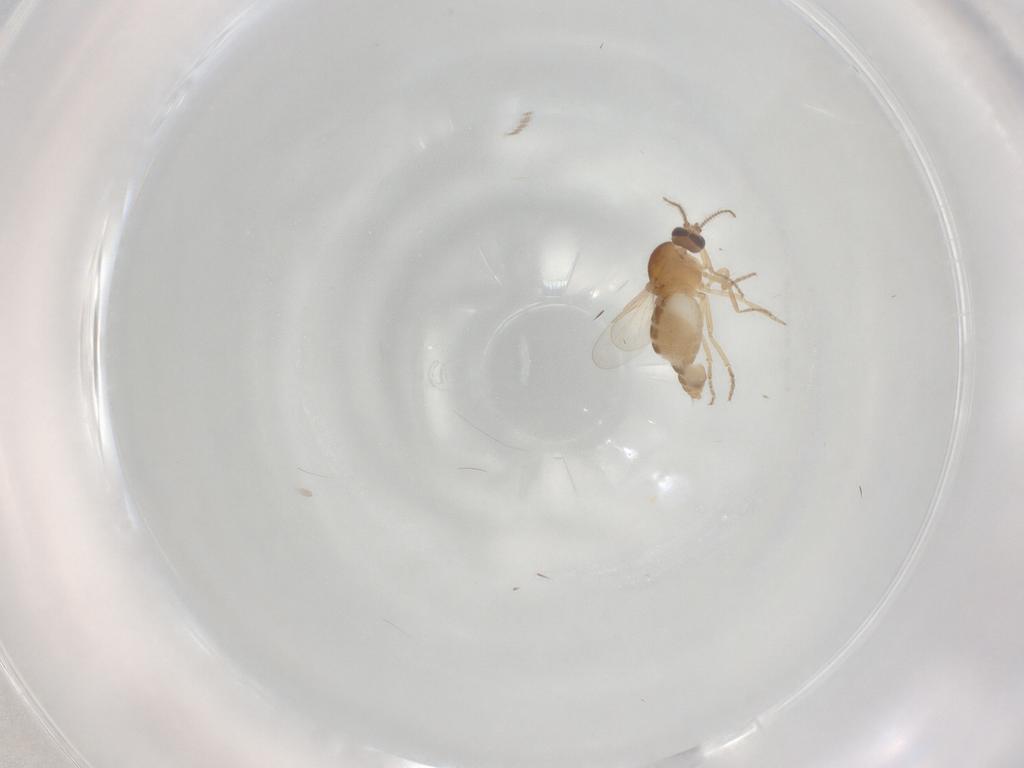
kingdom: Animalia
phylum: Arthropoda
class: Insecta
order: Diptera
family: Ceratopogonidae
